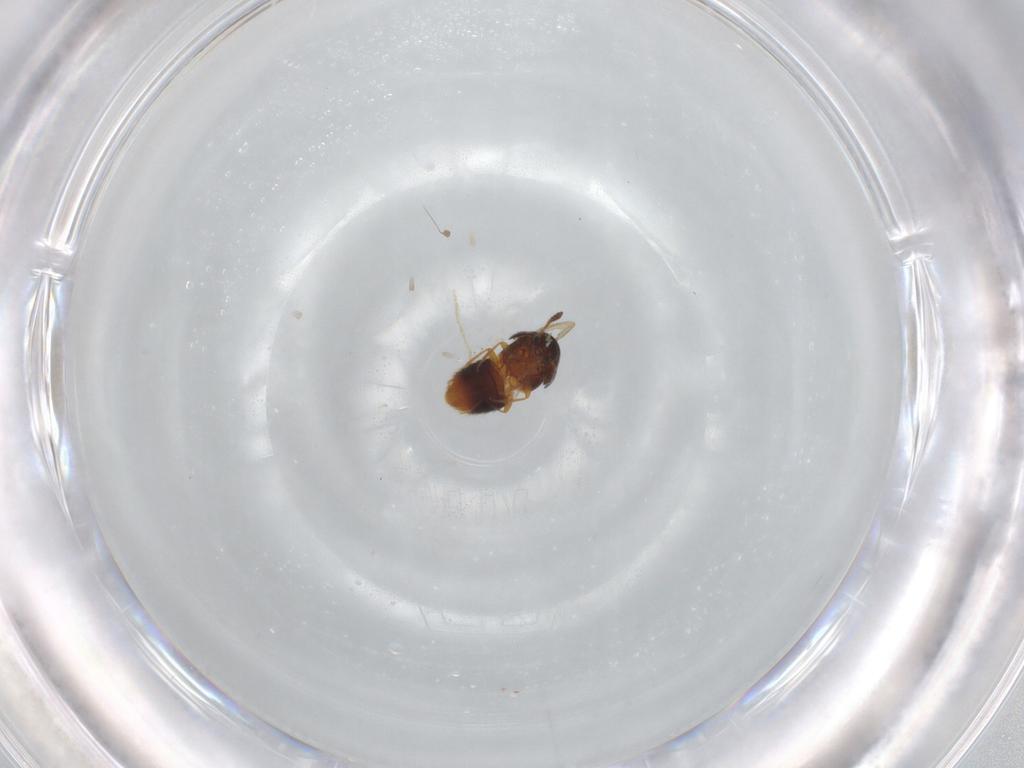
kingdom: Animalia
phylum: Arthropoda
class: Insecta
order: Coleoptera
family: Staphylinidae
